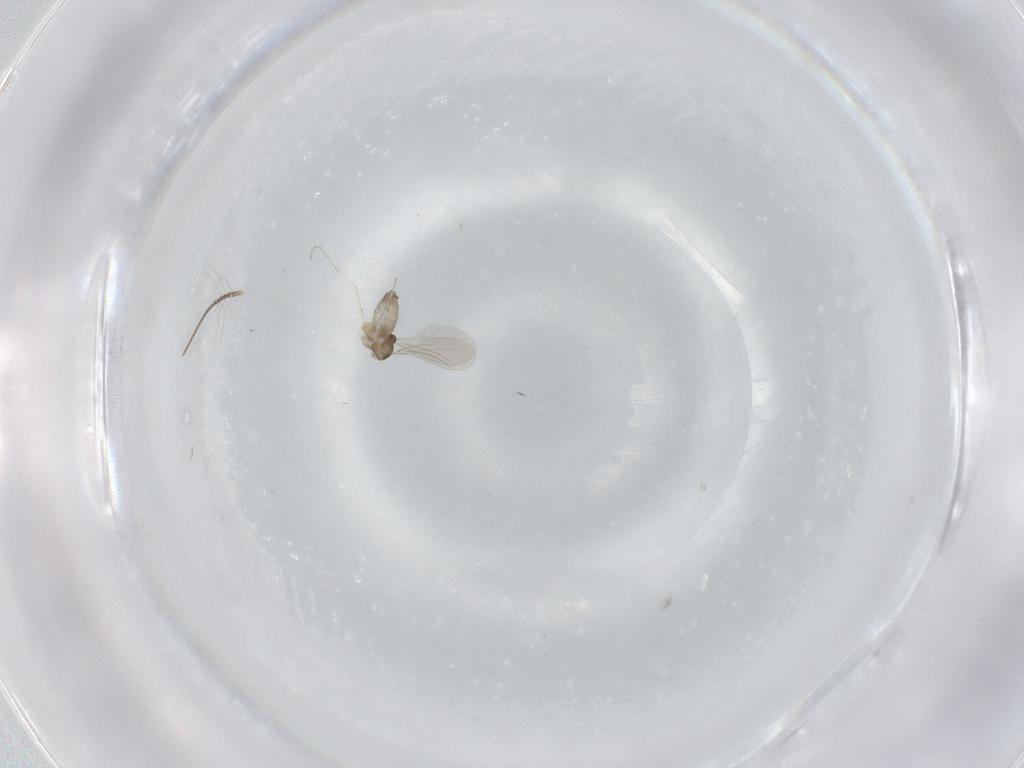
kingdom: Animalia
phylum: Arthropoda
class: Insecta
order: Diptera
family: Cecidomyiidae
